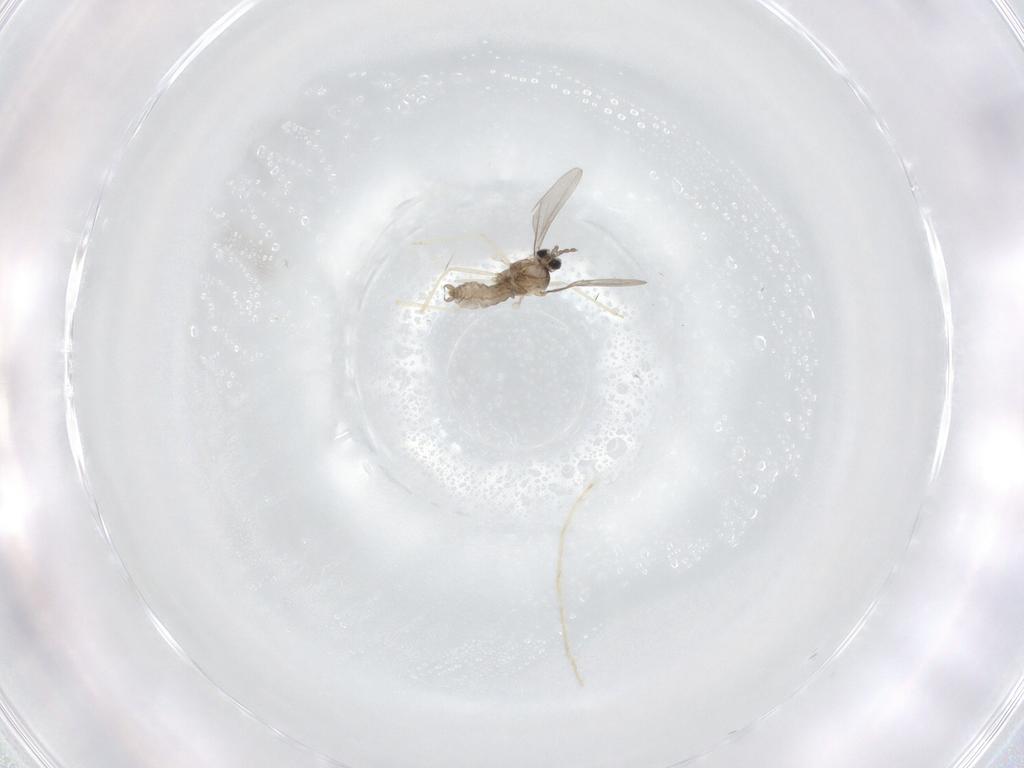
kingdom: Animalia
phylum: Arthropoda
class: Insecta
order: Diptera
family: Chironomidae
